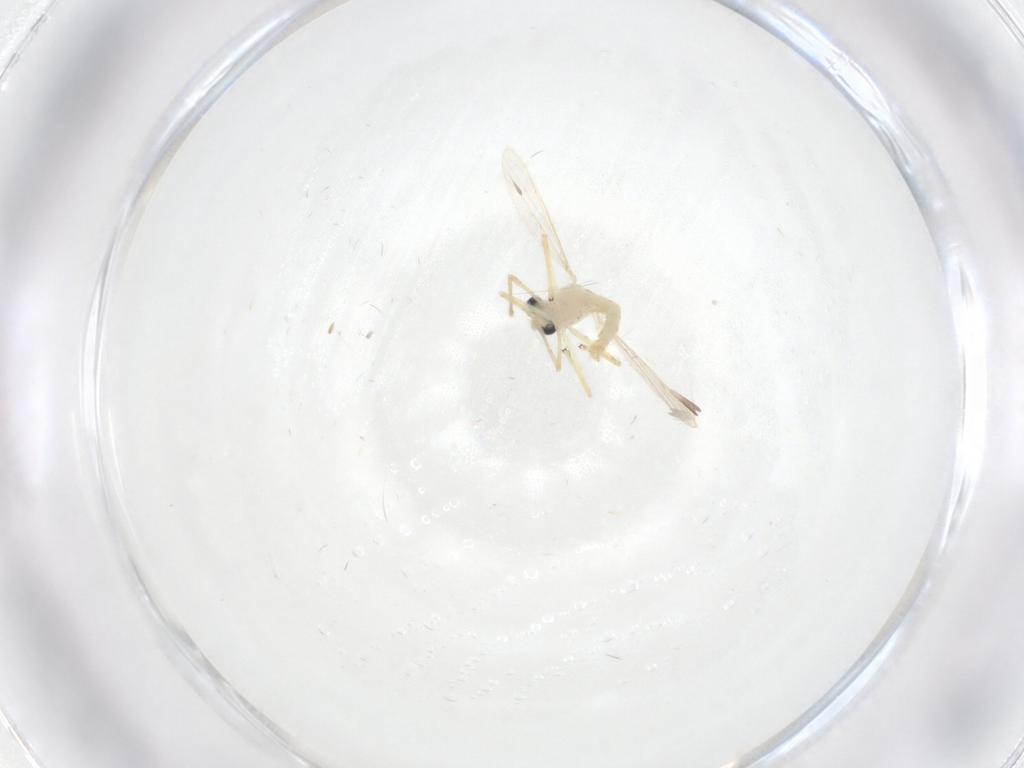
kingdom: Animalia
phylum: Arthropoda
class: Insecta
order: Diptera
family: Chironomidae
